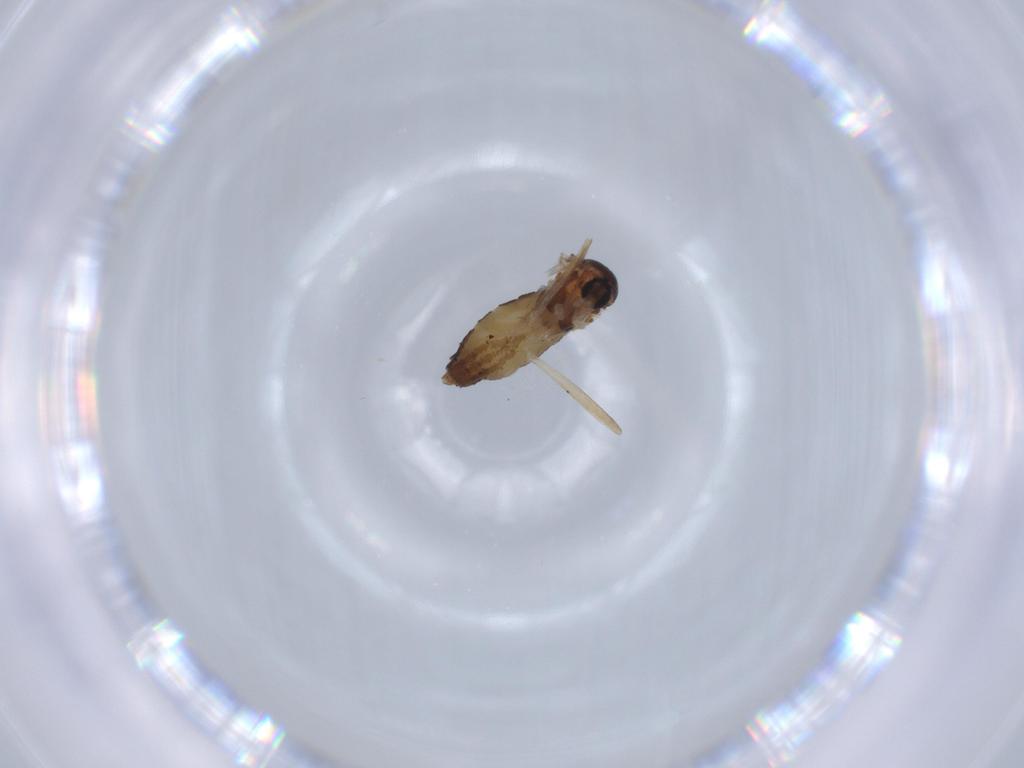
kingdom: Animalia
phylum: Arthropoda
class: Insecta
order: Diptera
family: Cecidomyiidae
